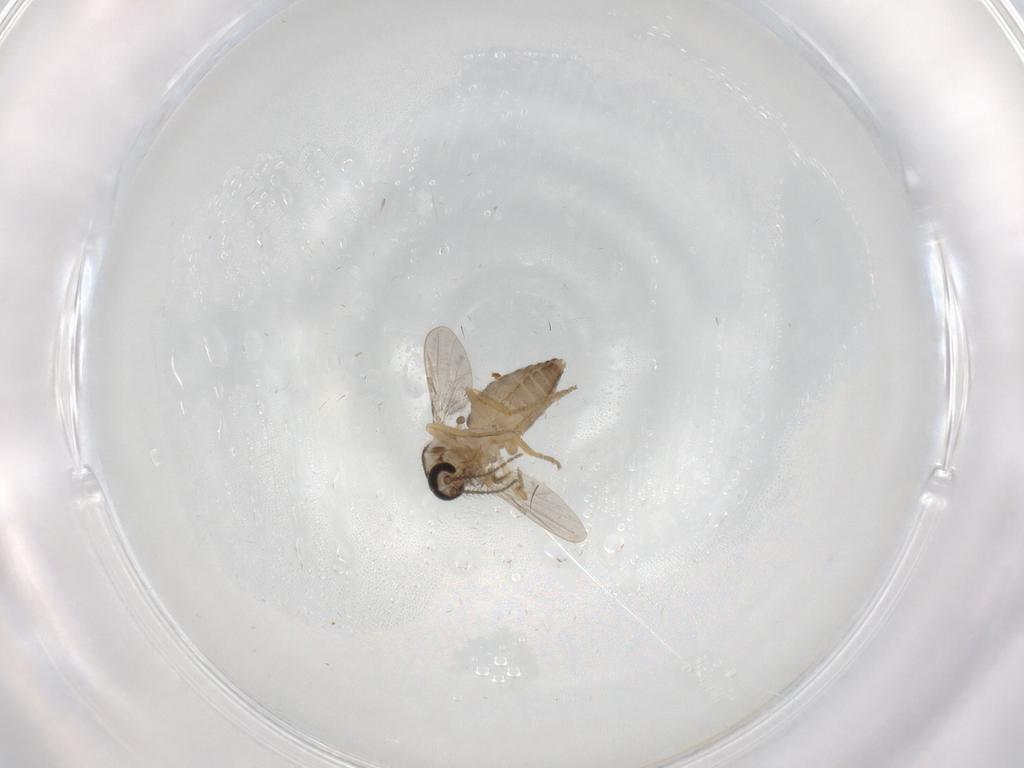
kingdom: Animalia
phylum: Arthropoda
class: Insecta
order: Diptera
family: Ceratopogonidae
